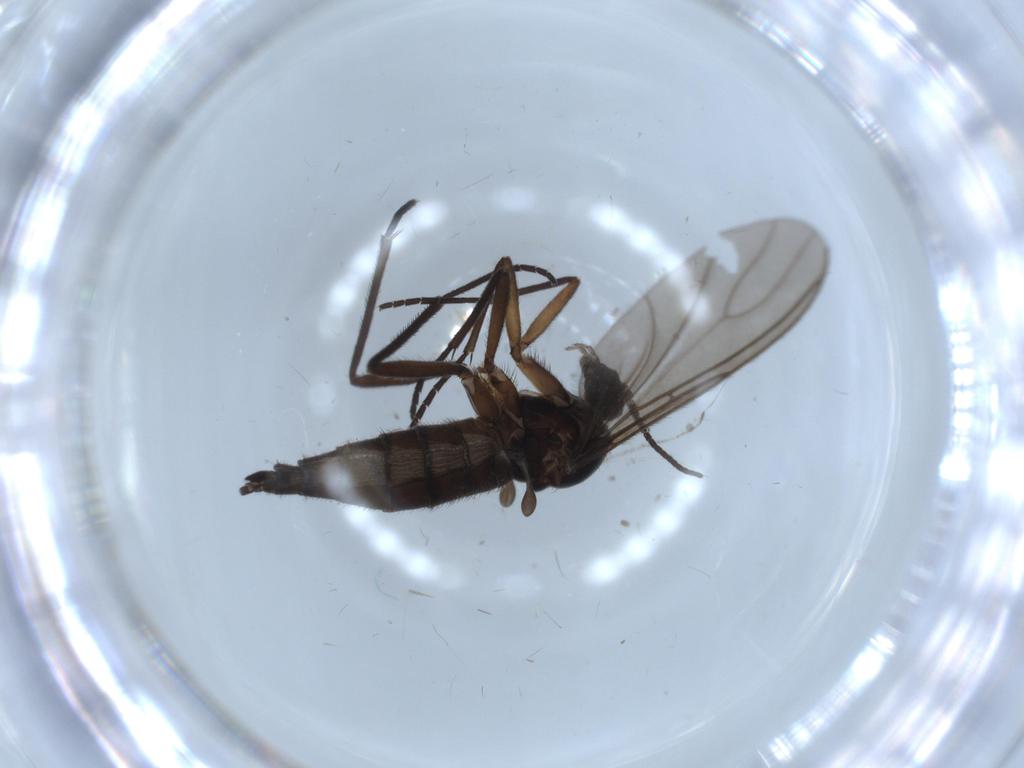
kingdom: Animalia
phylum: Arthropoda
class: Insecta
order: Diptera
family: Sciaridae
